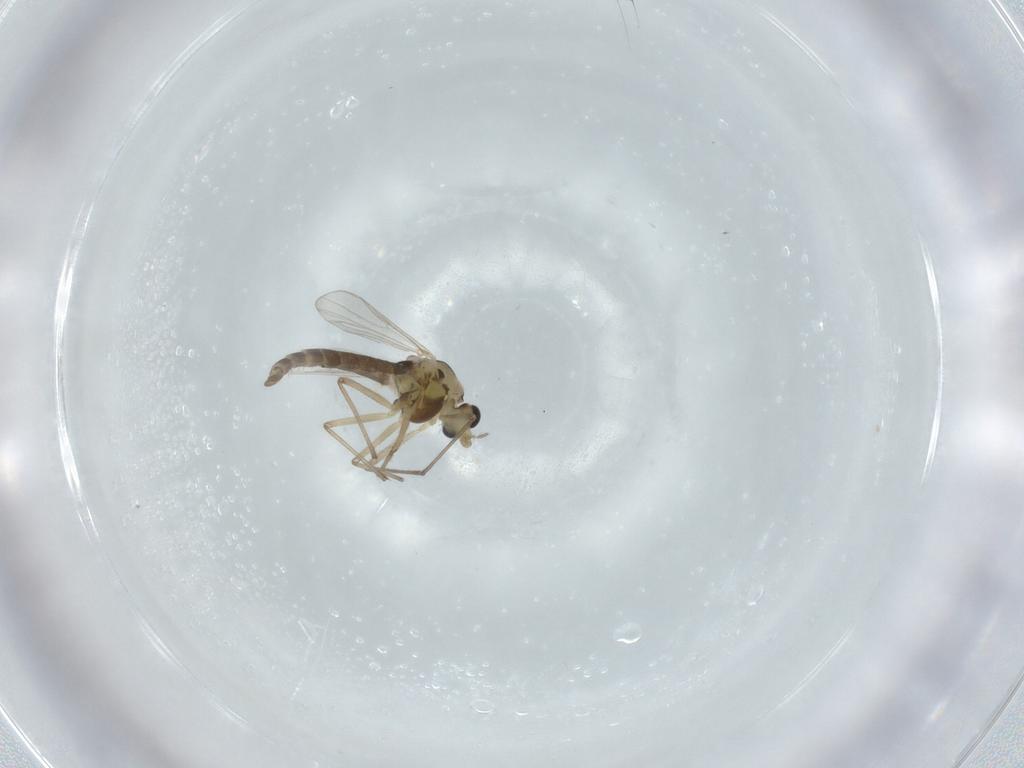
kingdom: Animalia
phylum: Arthropoda
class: Insecta
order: Diptera
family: Chironomidae
